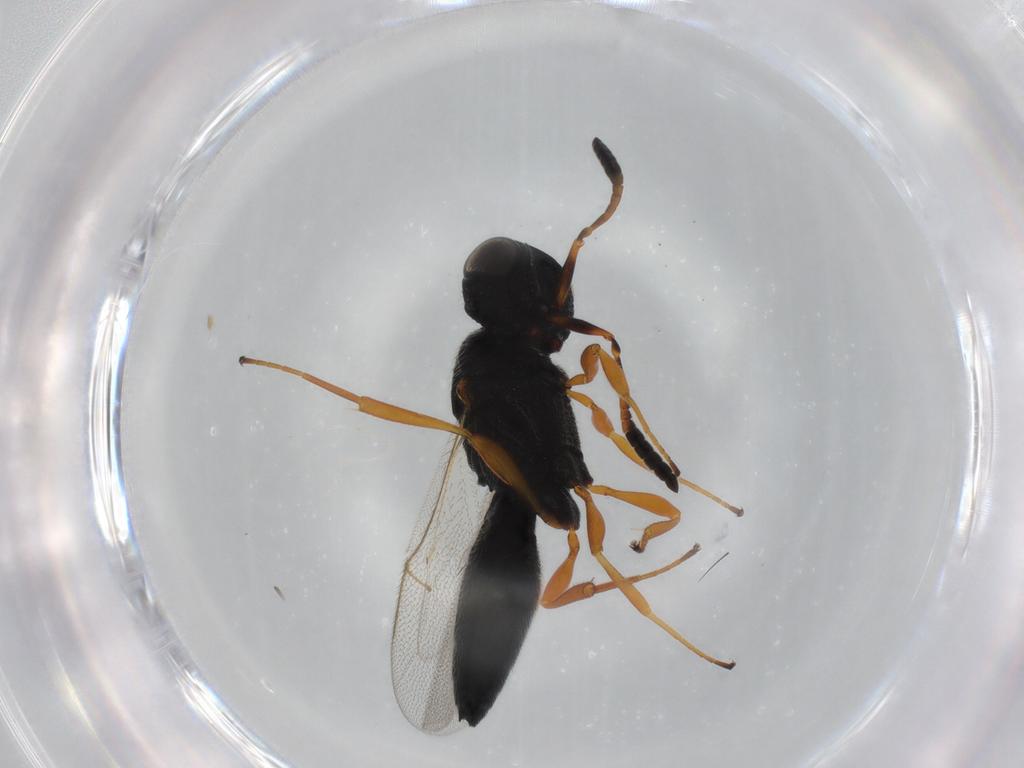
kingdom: Animalia
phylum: Arthropoda
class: Insecta
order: Hymenoptera
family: Scelionidae
